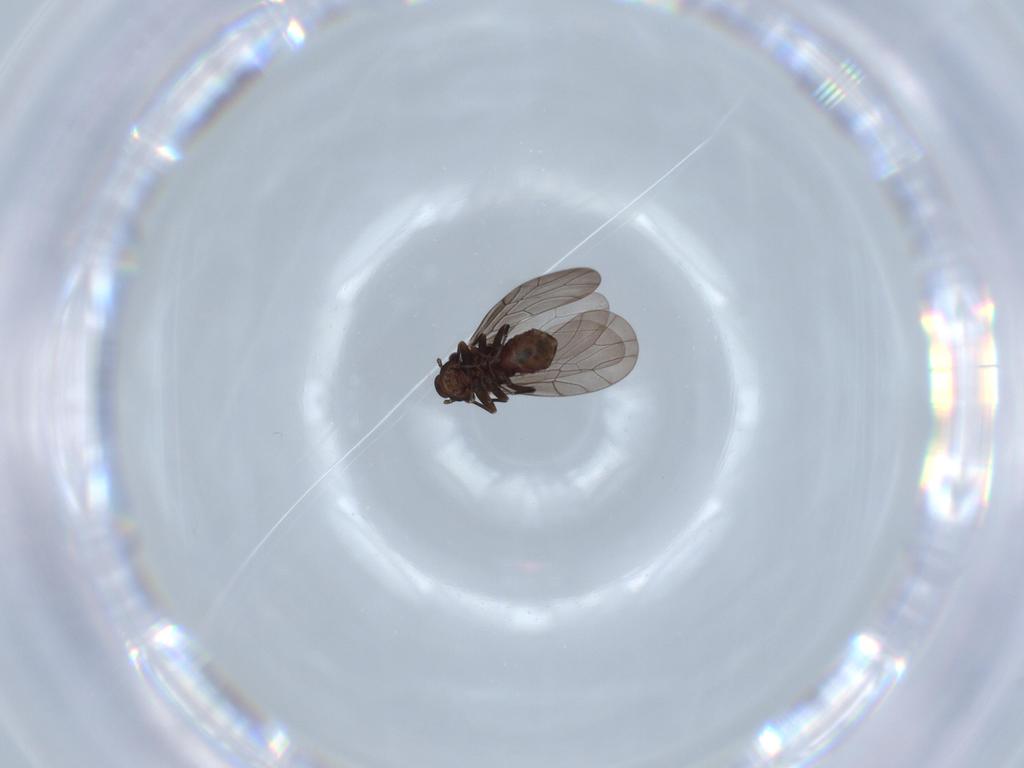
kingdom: Animalia
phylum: Arthropoda
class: Insecta
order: Psocodea
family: Lepidopsocidae
